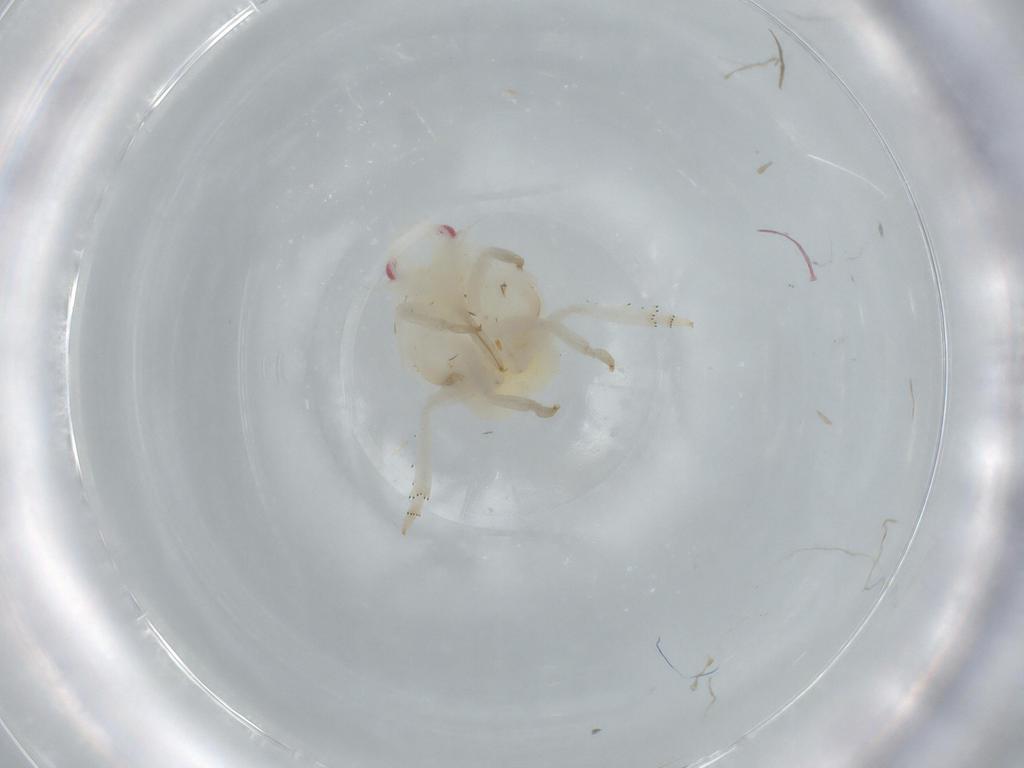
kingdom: Animalia
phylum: Arthropoda
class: Insecta
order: Hemiptera
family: Flatidae
